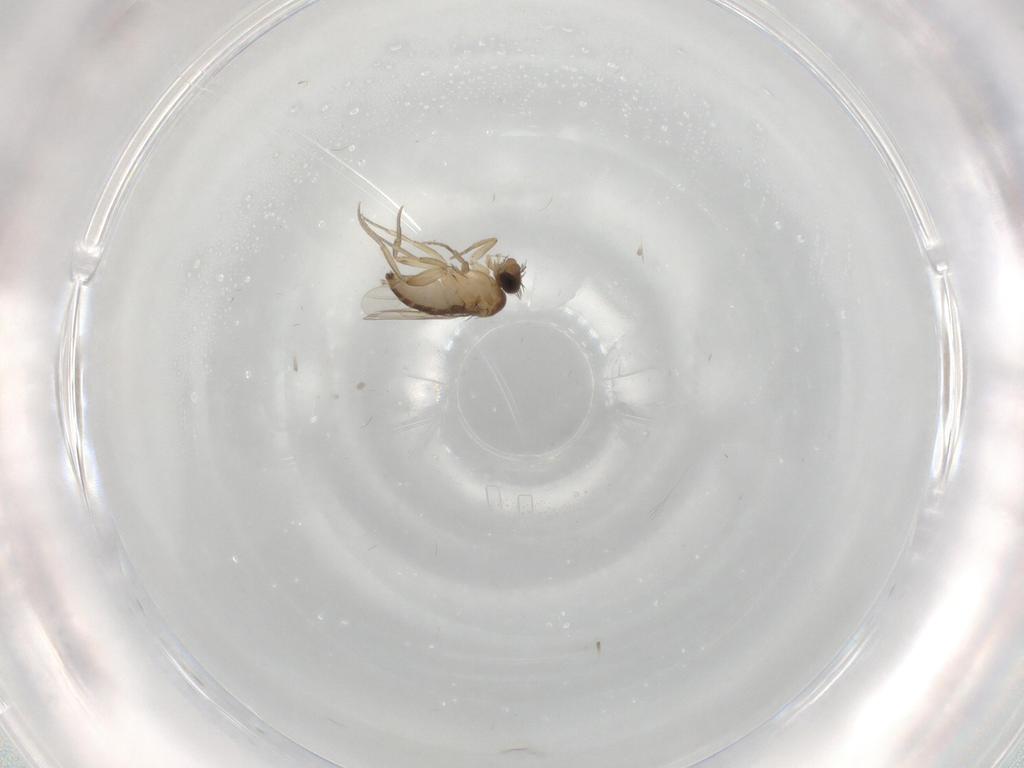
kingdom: Animalia
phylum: Arthropoda
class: Insecta
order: Diptera
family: Phoridae
